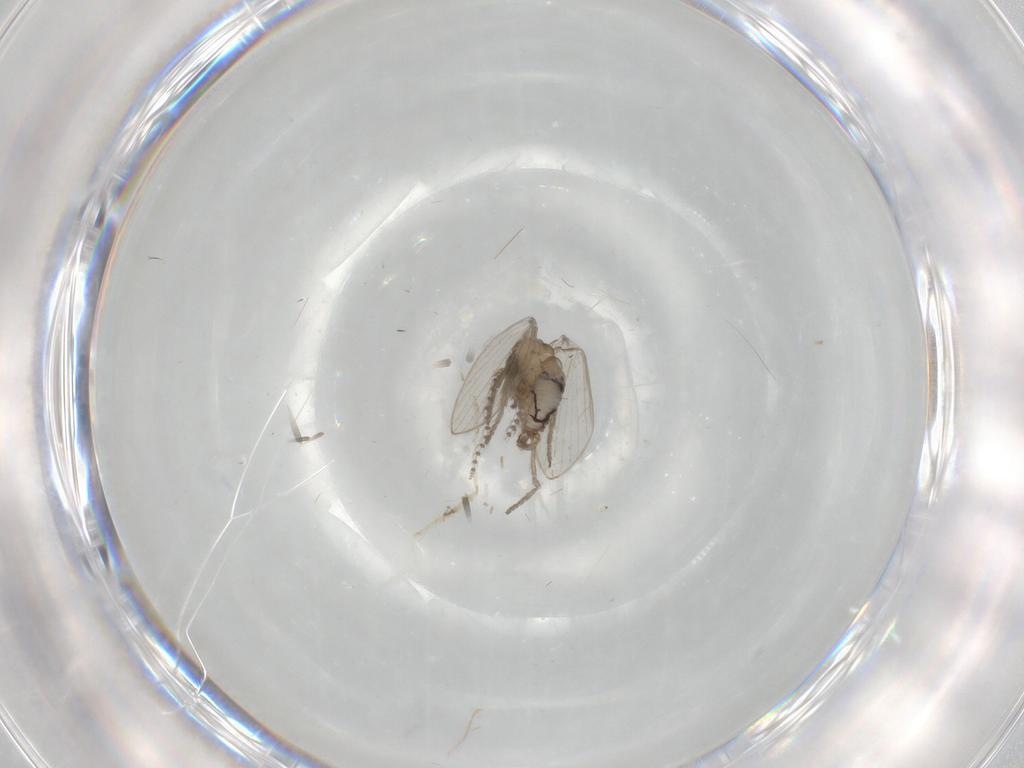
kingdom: Animalia
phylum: Arthropoda
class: Insecta
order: Diptera
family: Psychodidae
